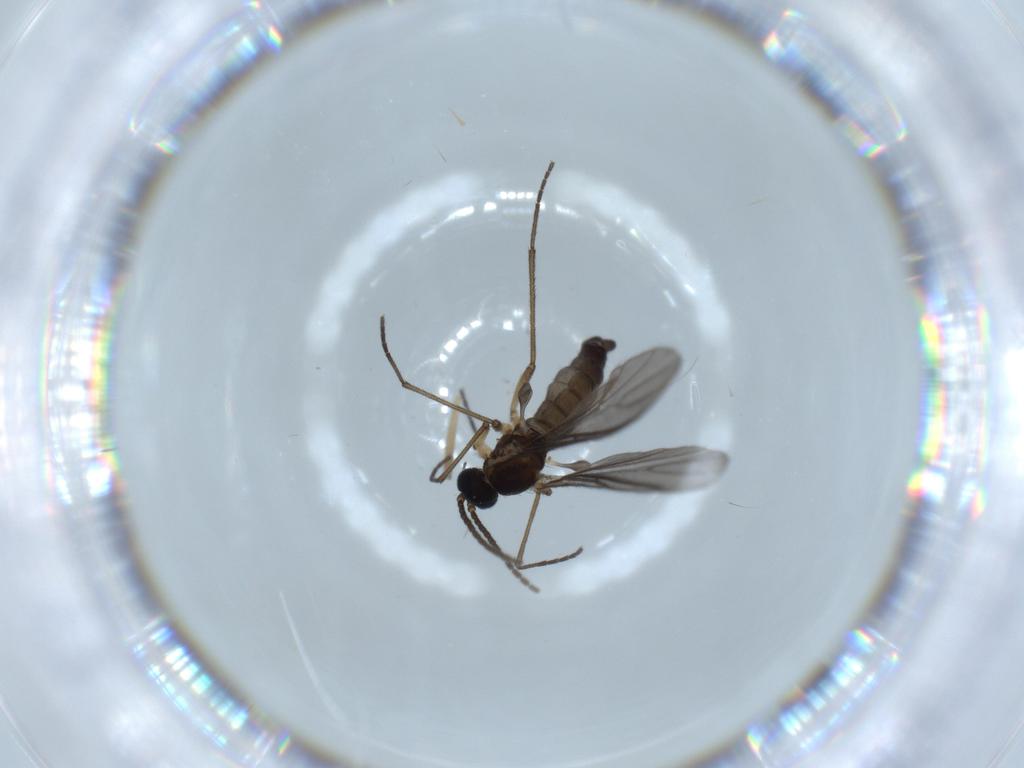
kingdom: Animalia
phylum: Arthropoda
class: Insecta
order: Diptera
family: Sciaridae
